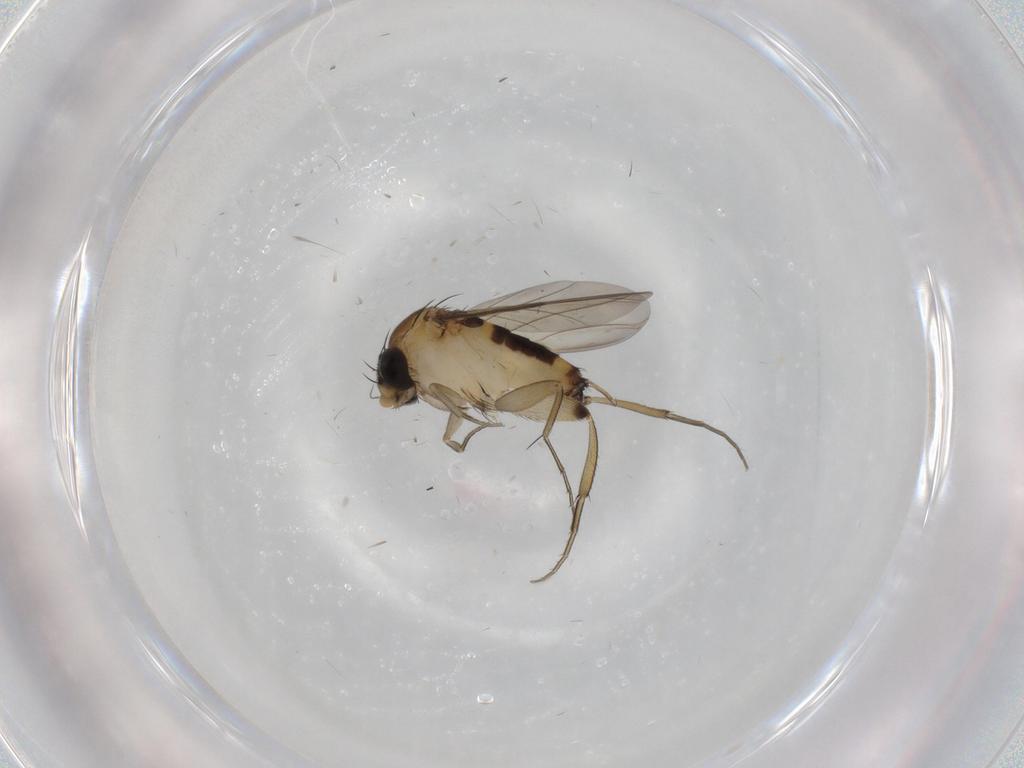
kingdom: Animalia
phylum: Arthropoda
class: Insecta
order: Diptera
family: Phoridae
